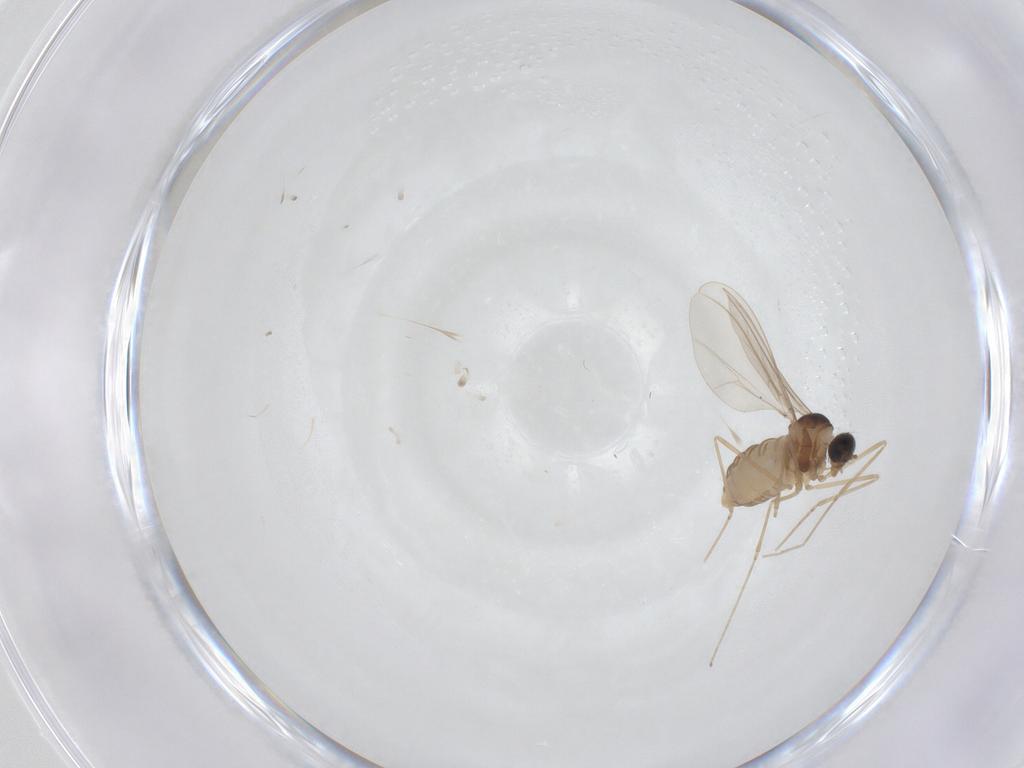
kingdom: Animalia
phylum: Arthropoda
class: Insecta
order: Diptera
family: Cecidomyiidae
